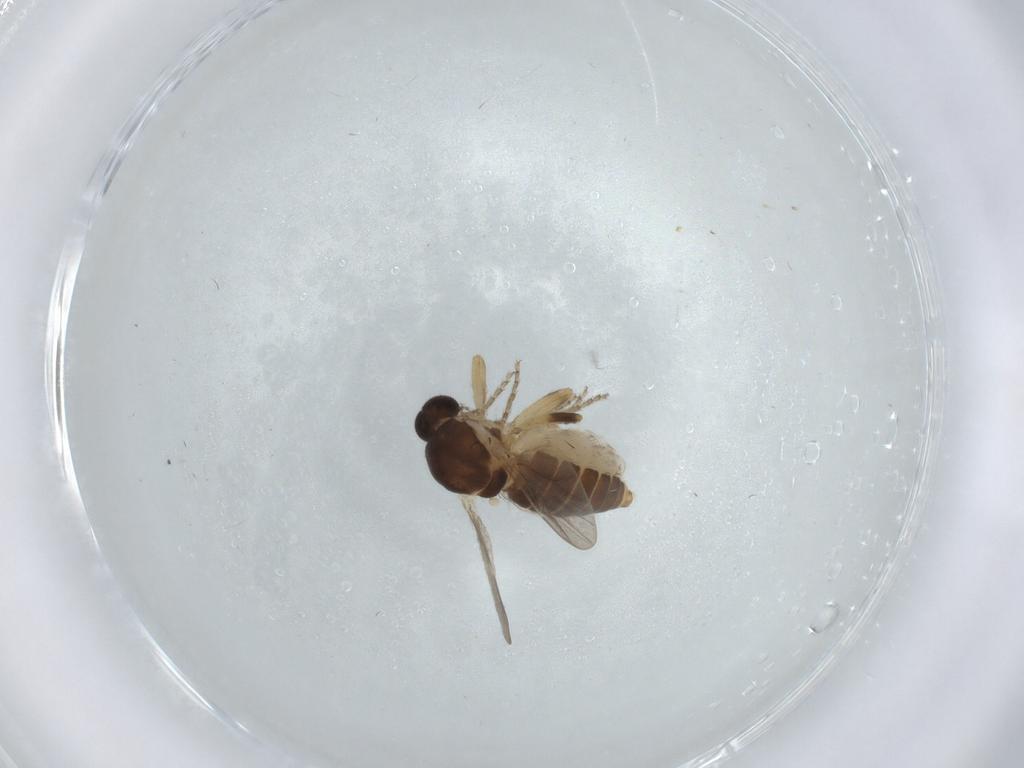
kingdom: Animalia
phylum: Arthropoda
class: Insecta
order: Diptera
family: Ceratopogonidae
